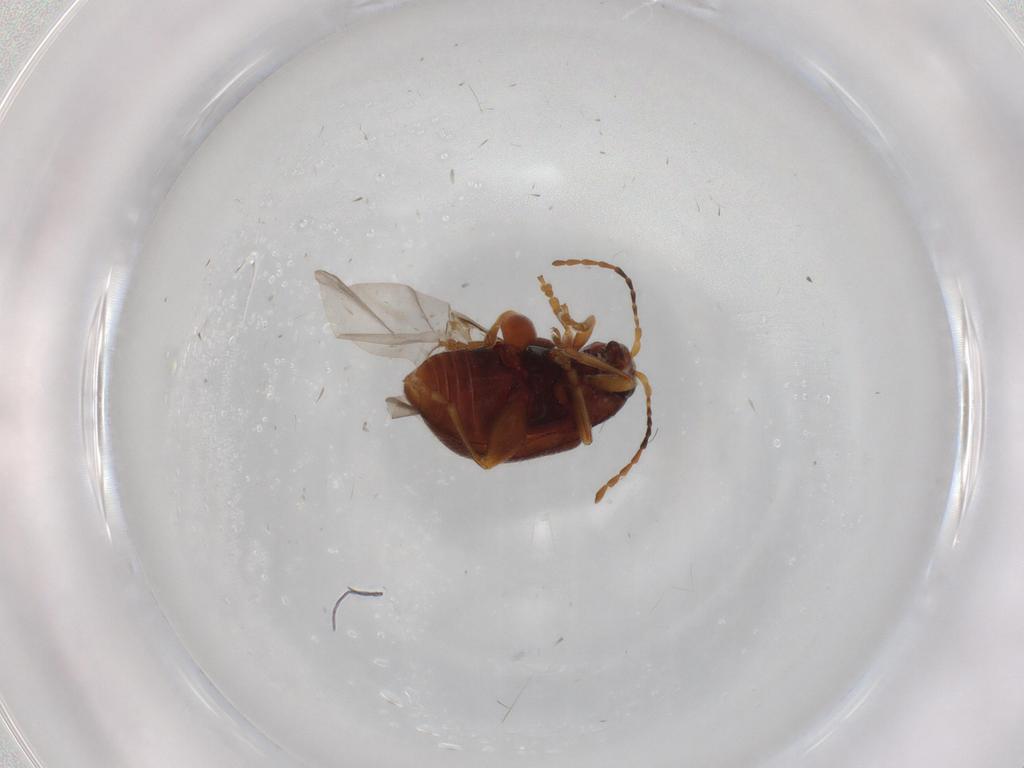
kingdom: Animalia
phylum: Arthropoda
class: Insecta
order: Coleoptera
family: Chrysomelidae
